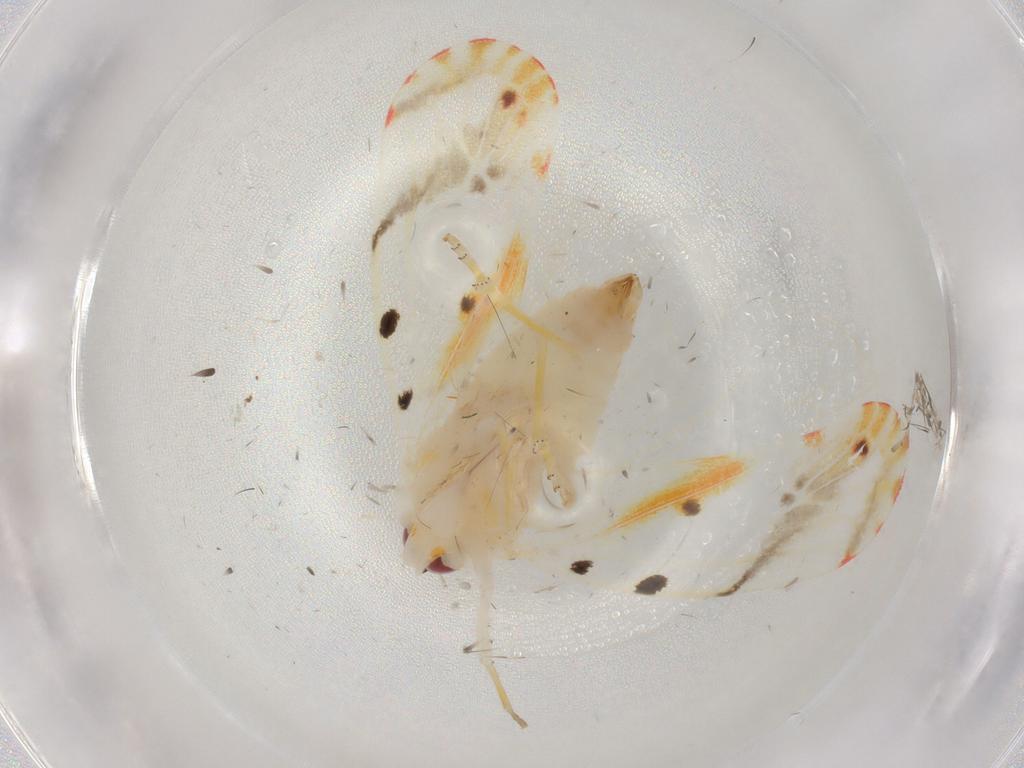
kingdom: Animalia
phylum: Arthropoda
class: Insecta
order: Hemiptera
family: Derbidae
